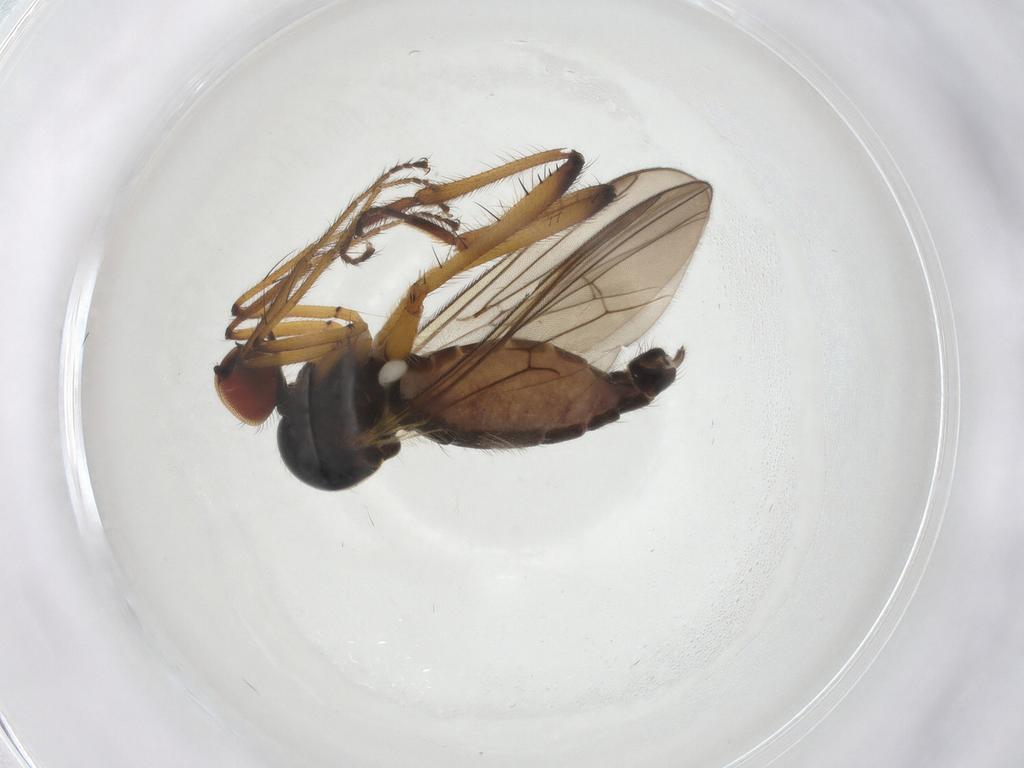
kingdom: Animalia
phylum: Arthropoda
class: Insecta
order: Diptera
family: Hybotidae
